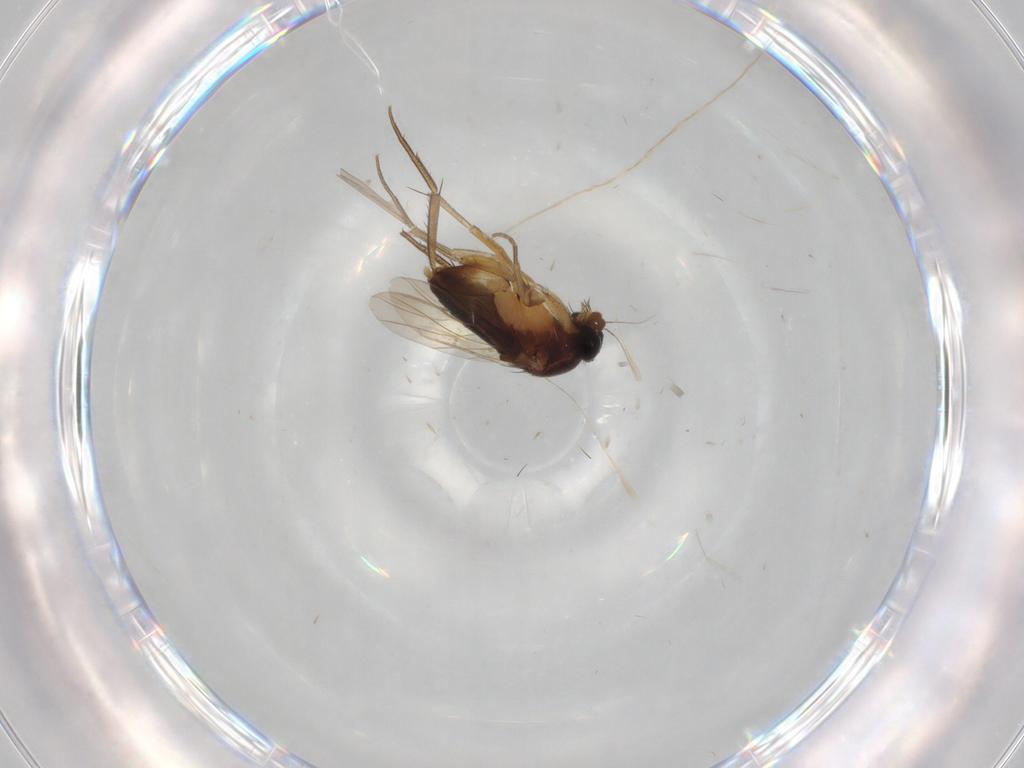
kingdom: Animalia
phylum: Arthropoda
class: Insecta
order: Diptera
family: Phoridae
